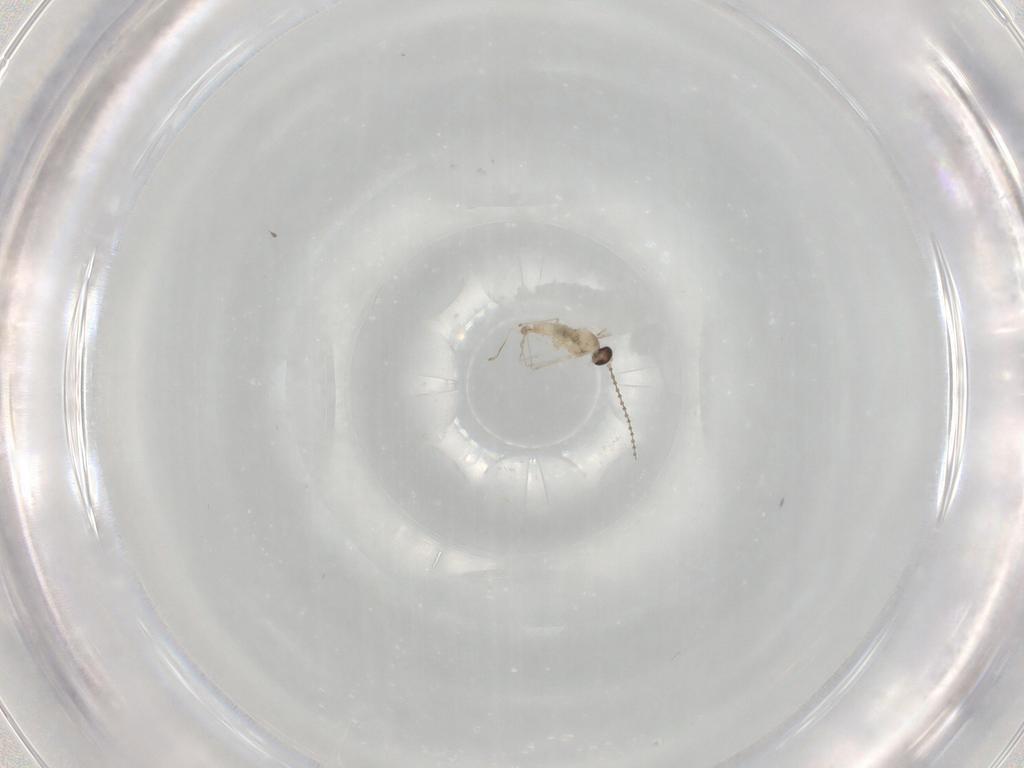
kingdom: Animalia
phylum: Arthropoda
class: Insecta
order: Diptera
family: Cecidomyiidae
